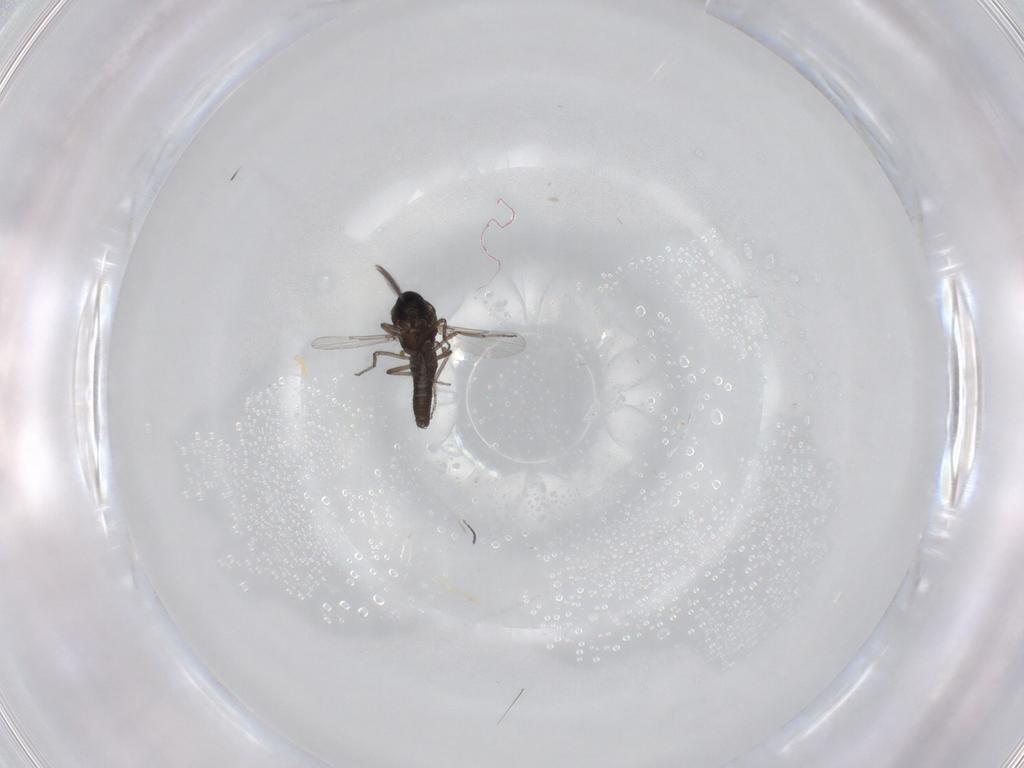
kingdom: Animalia
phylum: Arthropoda
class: Insecta
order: Diptera
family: Ceratopogonidae
